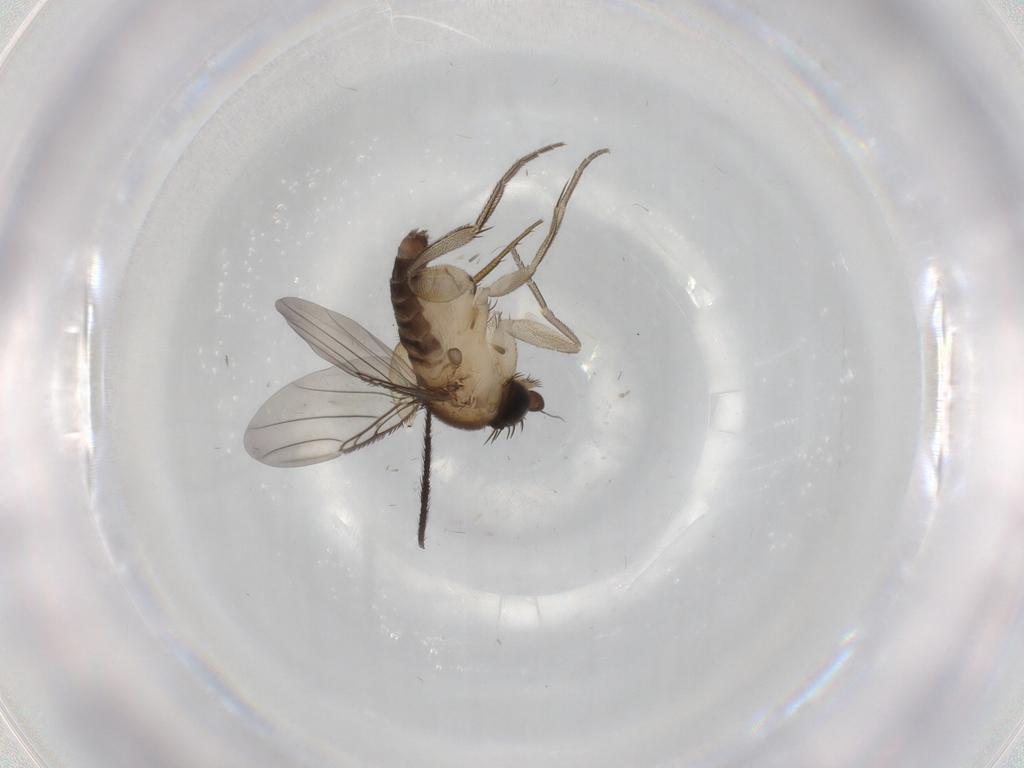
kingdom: Animalia
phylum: Arthropoda
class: Insecta
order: Diptera
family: Phoridae
